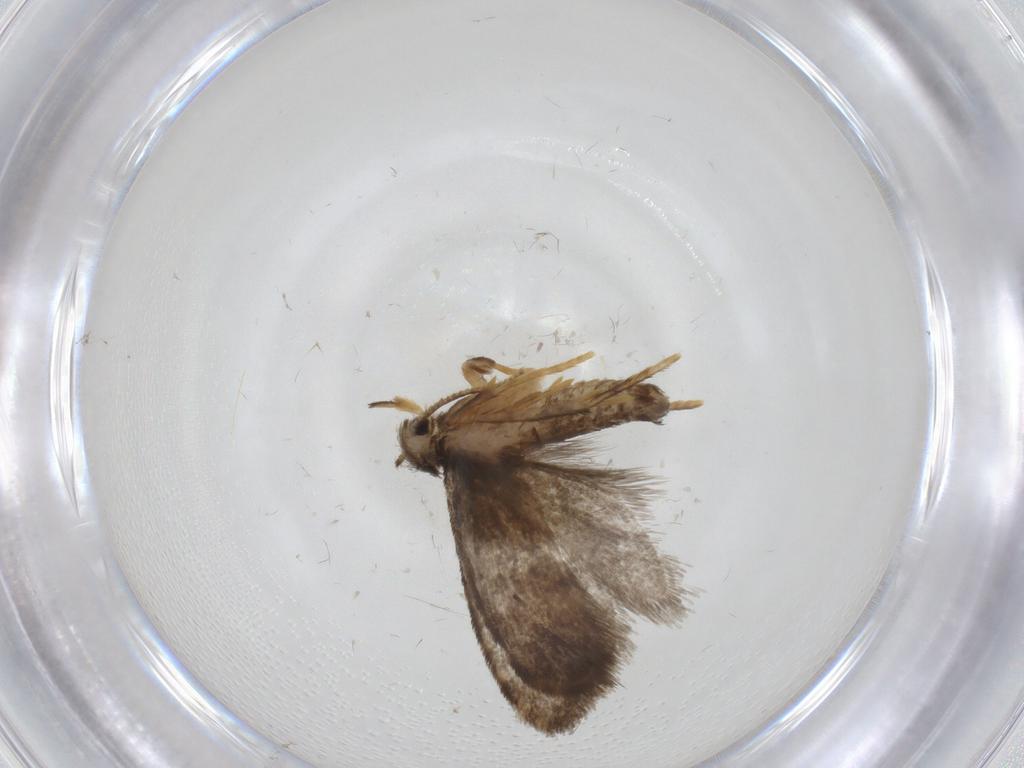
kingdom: Animalia
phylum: Arthropoda
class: Insecta
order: Lepidoptera
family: Psychidae
